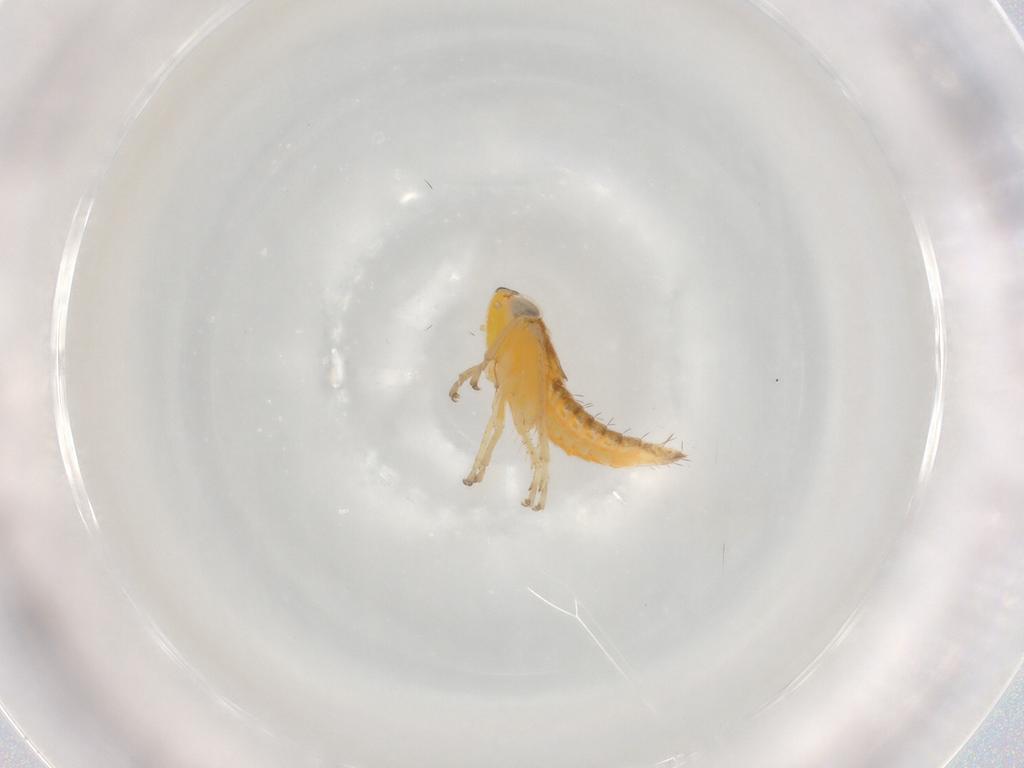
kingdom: Animalia
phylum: Arthropoda
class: Insecta
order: Hemiptera
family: Cicadellidae
